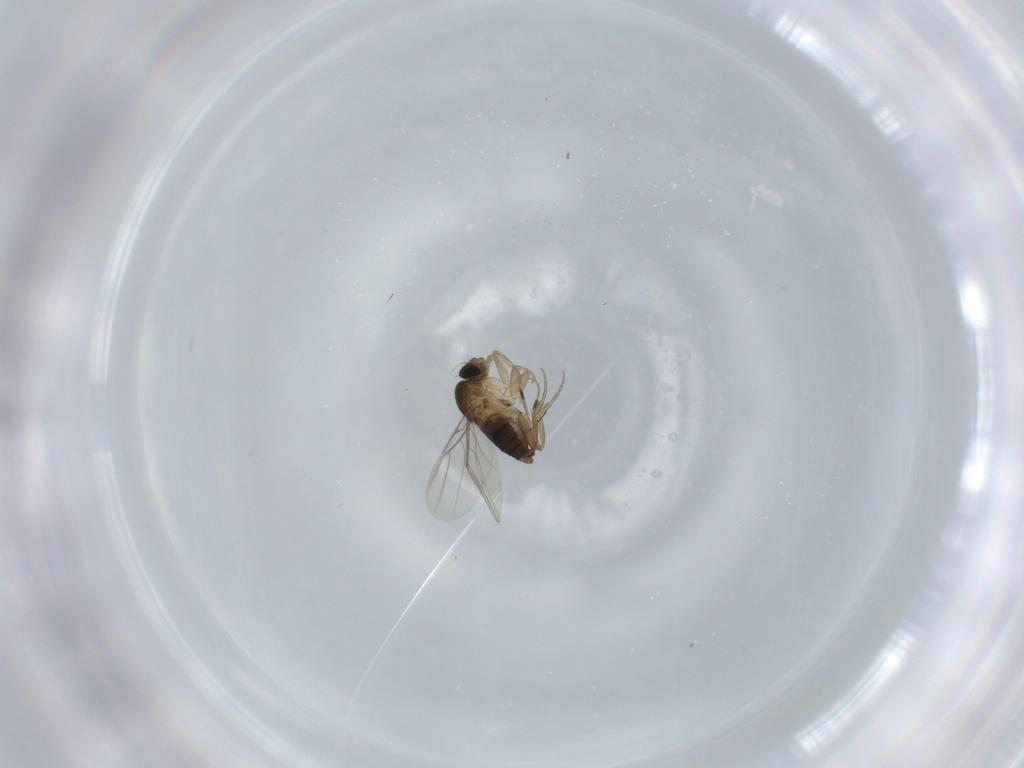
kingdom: Animalia
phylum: Arthropoda
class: Insecta
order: Diptera
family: Phoridae
